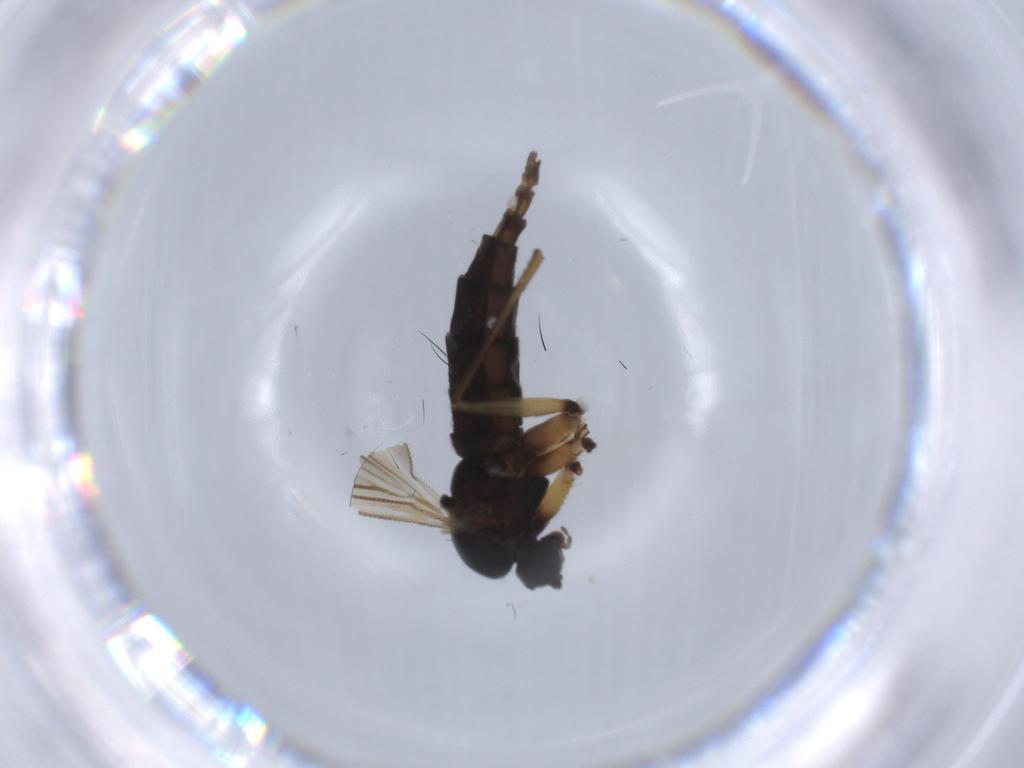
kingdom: Animalia
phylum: Arthropoda
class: Insecta
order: Diptera
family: Sciaridae
